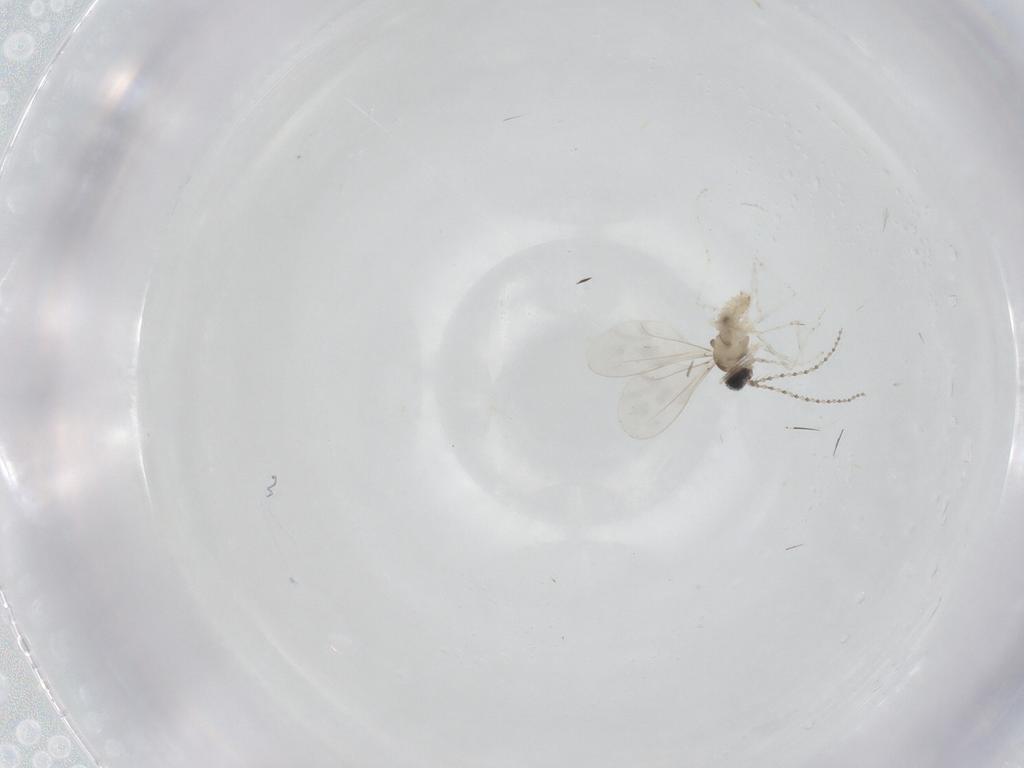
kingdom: Animalia
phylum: Arthropoda
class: Insecta
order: Diptera
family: Cecidomyiidae
